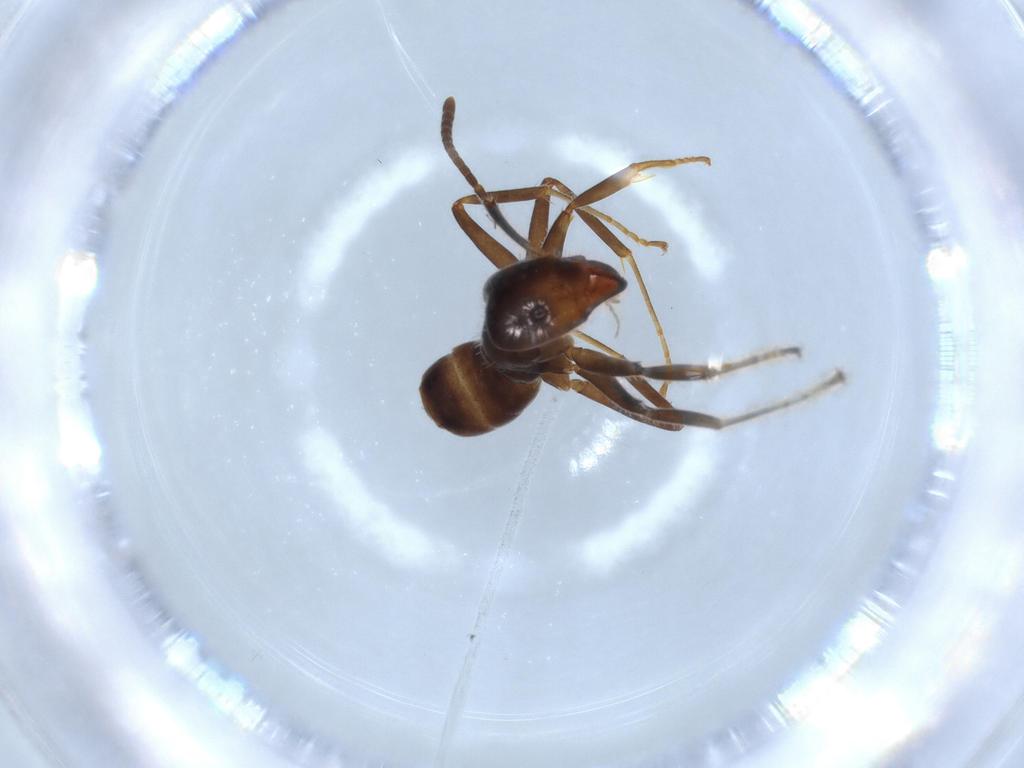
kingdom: Animalia
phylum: Arthropoda
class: Insecta
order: Hymenoptera
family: Formicidae
